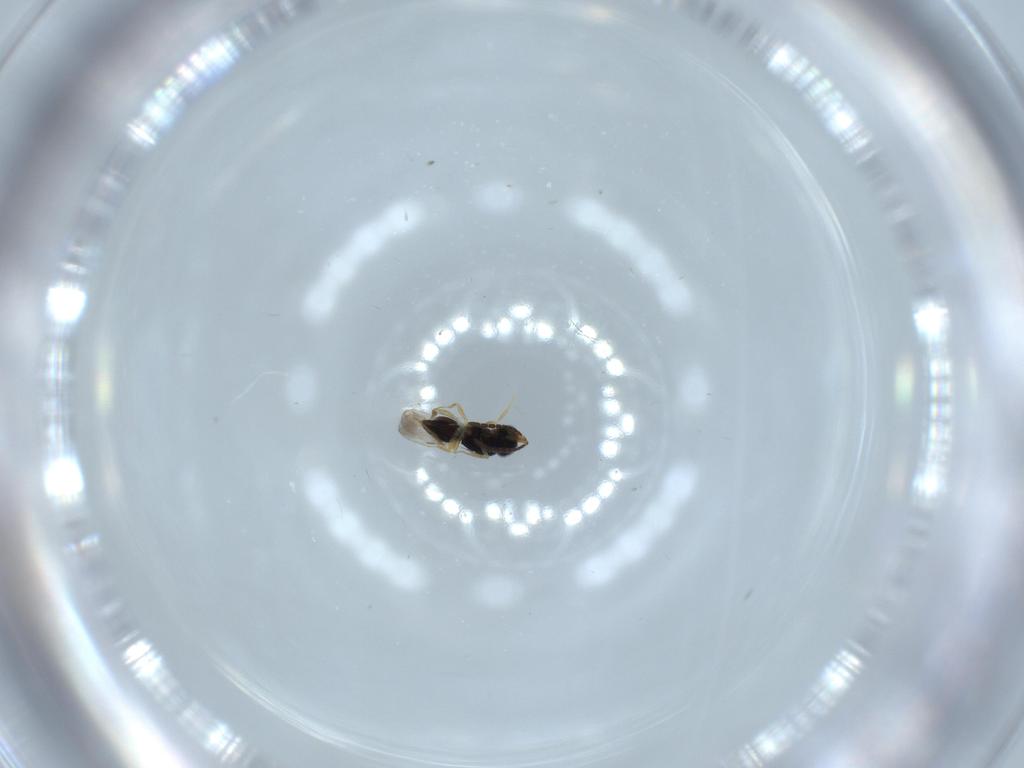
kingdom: Animalia
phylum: Arthropoda
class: Insecta
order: Hymenoptera
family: Ceraphronidae
